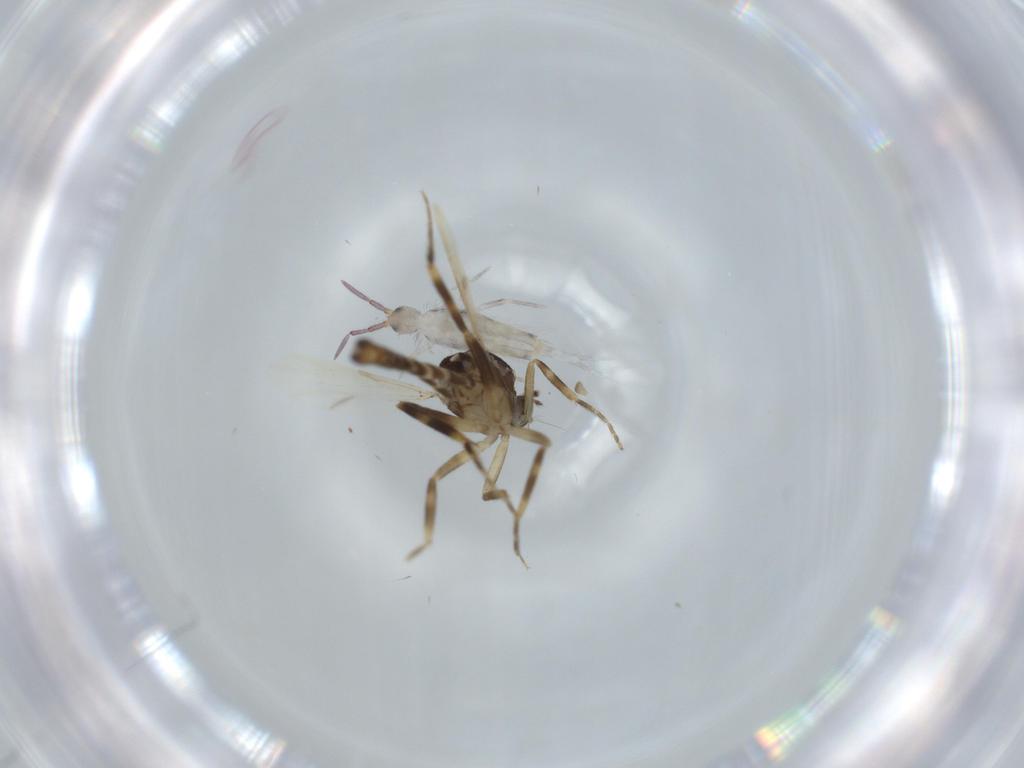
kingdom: Animalia
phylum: Arthropoda
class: Insecta
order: Diptera
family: Ceratopogonidae
